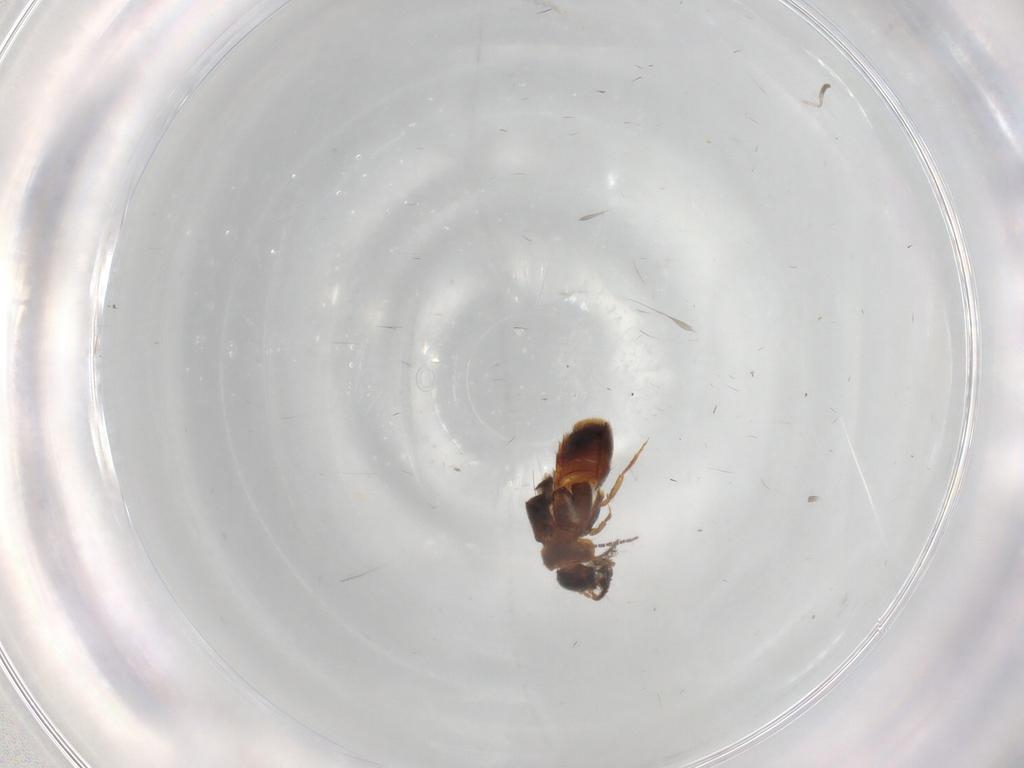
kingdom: Animalia
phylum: Arthropoda
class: Insecta
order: Coleoptera
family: Staphylinidae
